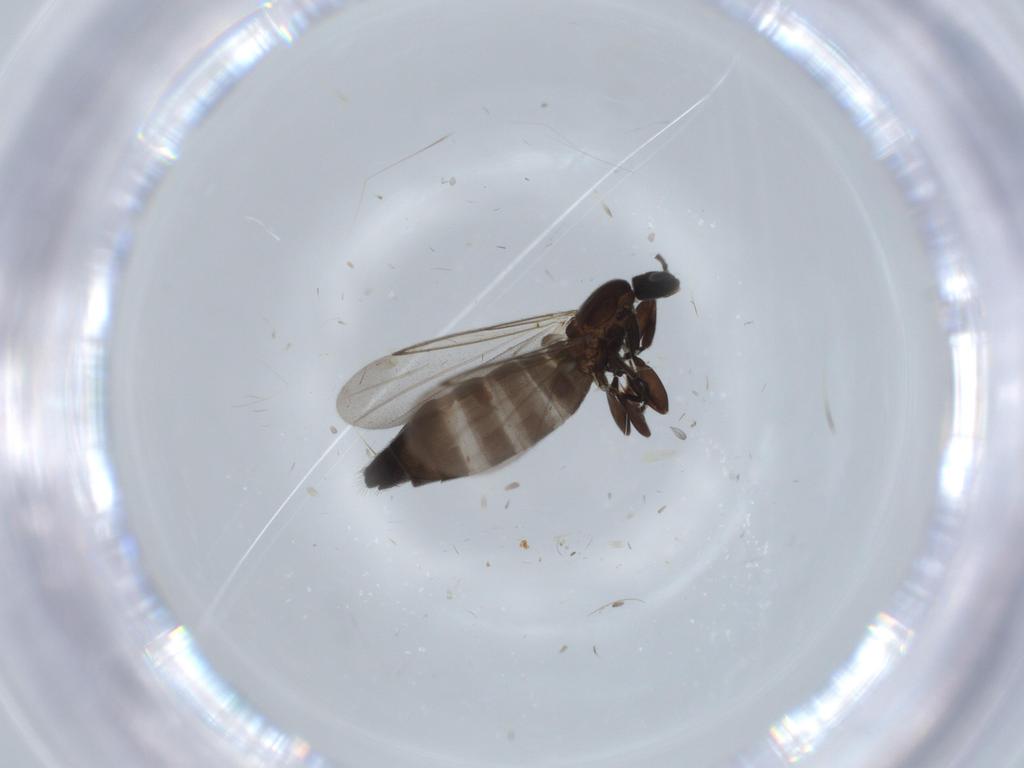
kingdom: Animalia
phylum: Arthropoda
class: Insecta
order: Diptera
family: Scatopsidae
